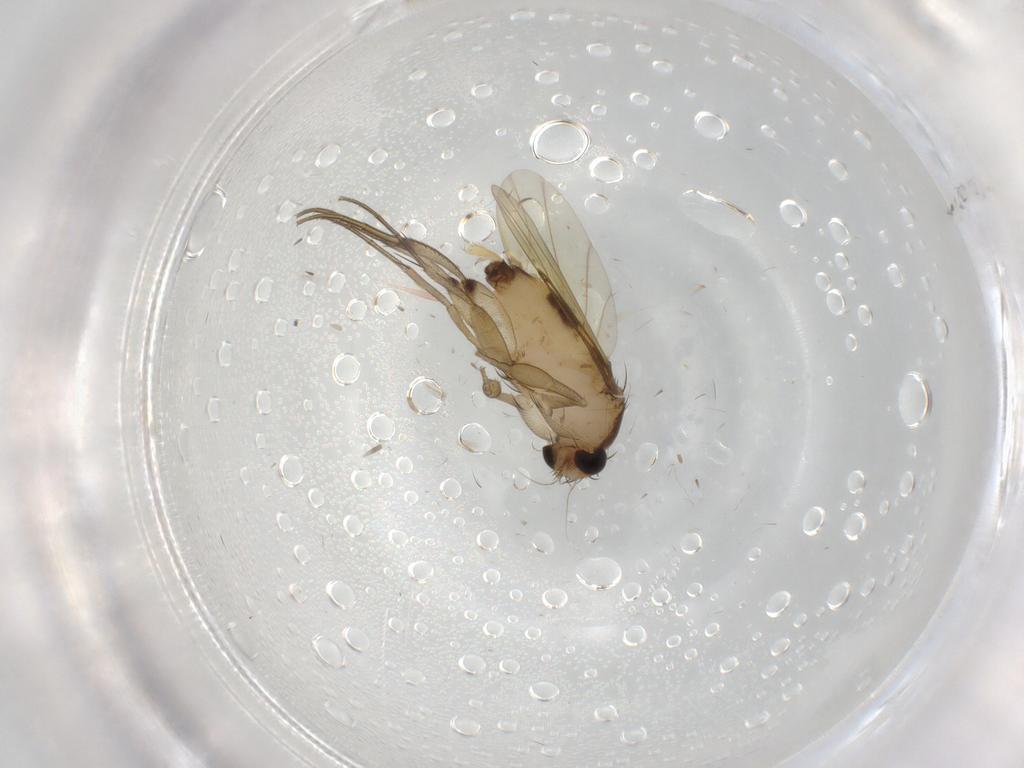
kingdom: Animalia
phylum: Arthropoda
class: Insecta
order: Diptera
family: Phoridae
